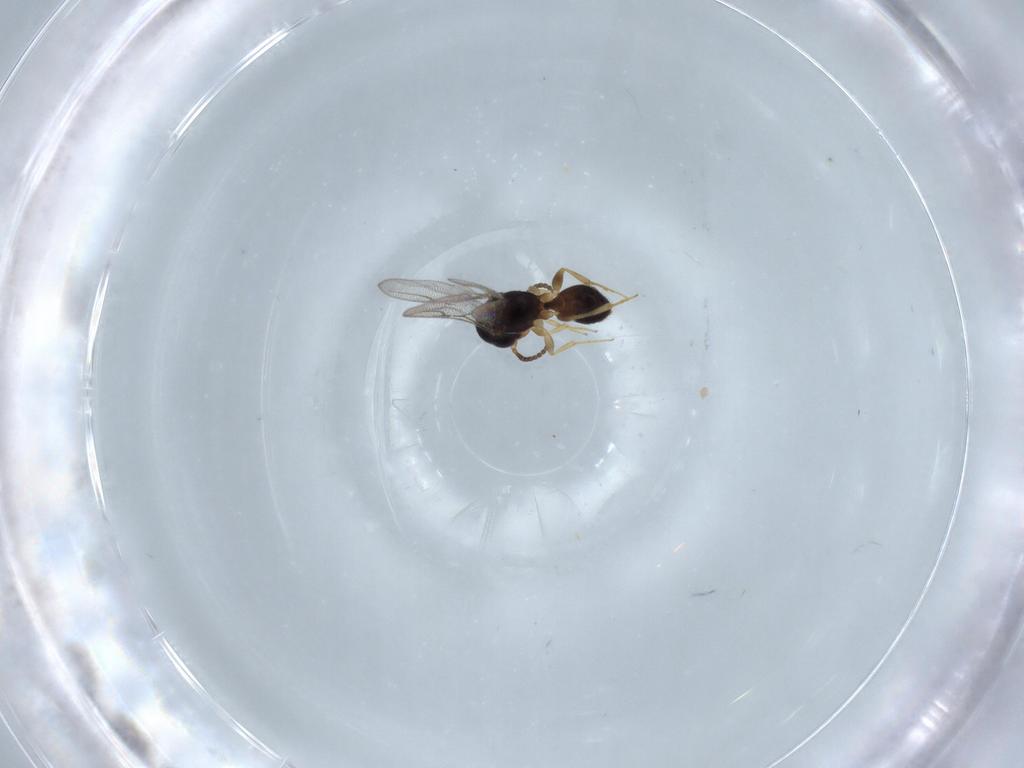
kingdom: Animalia
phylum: Arthropoda
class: Insecta
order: Hymenoptera
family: Bethylidae
